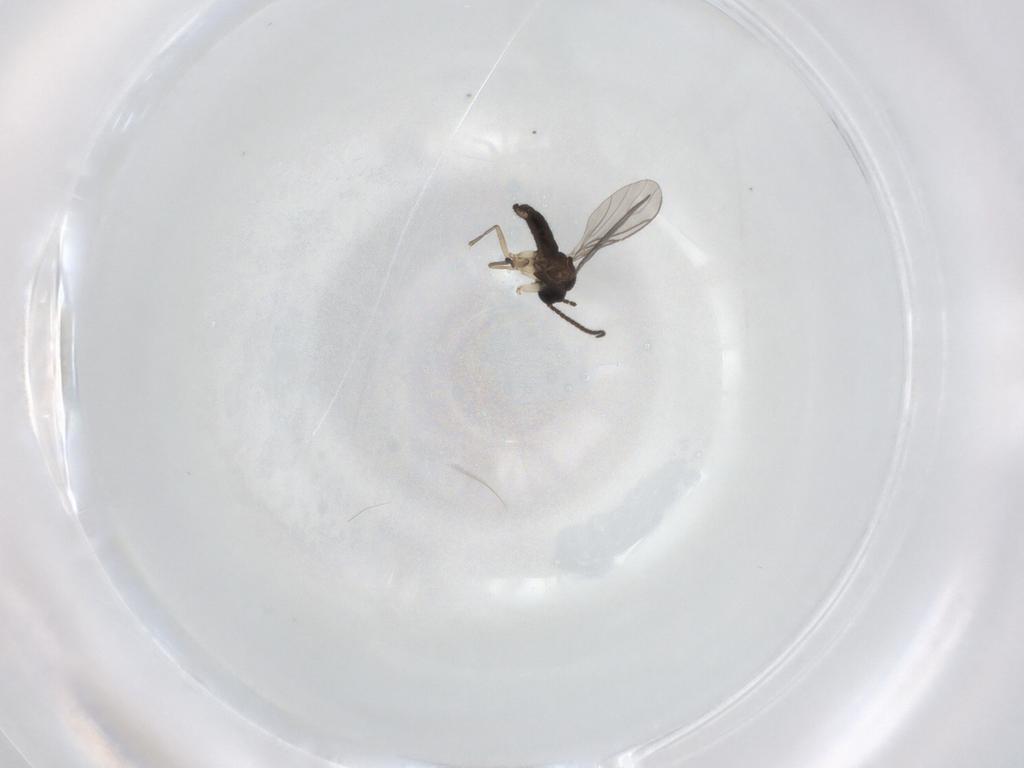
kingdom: Animalia
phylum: Arthropoda
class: Insecta
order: Diptera
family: Sciaridae
